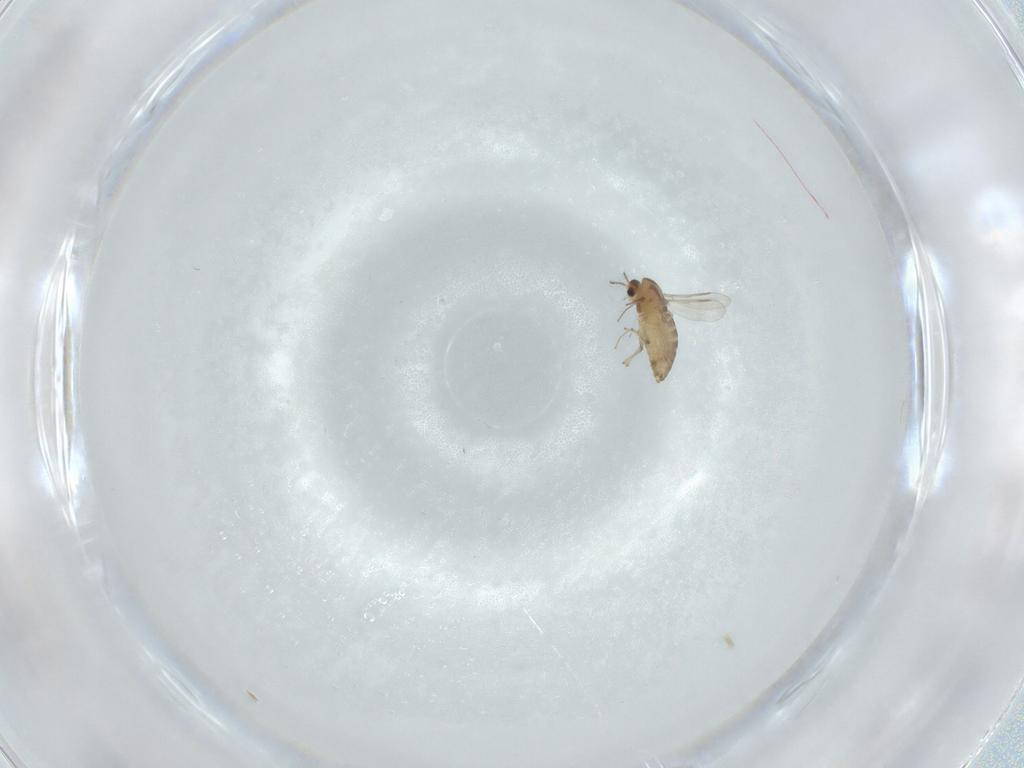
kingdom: Animalia
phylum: Arthropoda
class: Insecta
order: Diptera
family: Chironomidae
